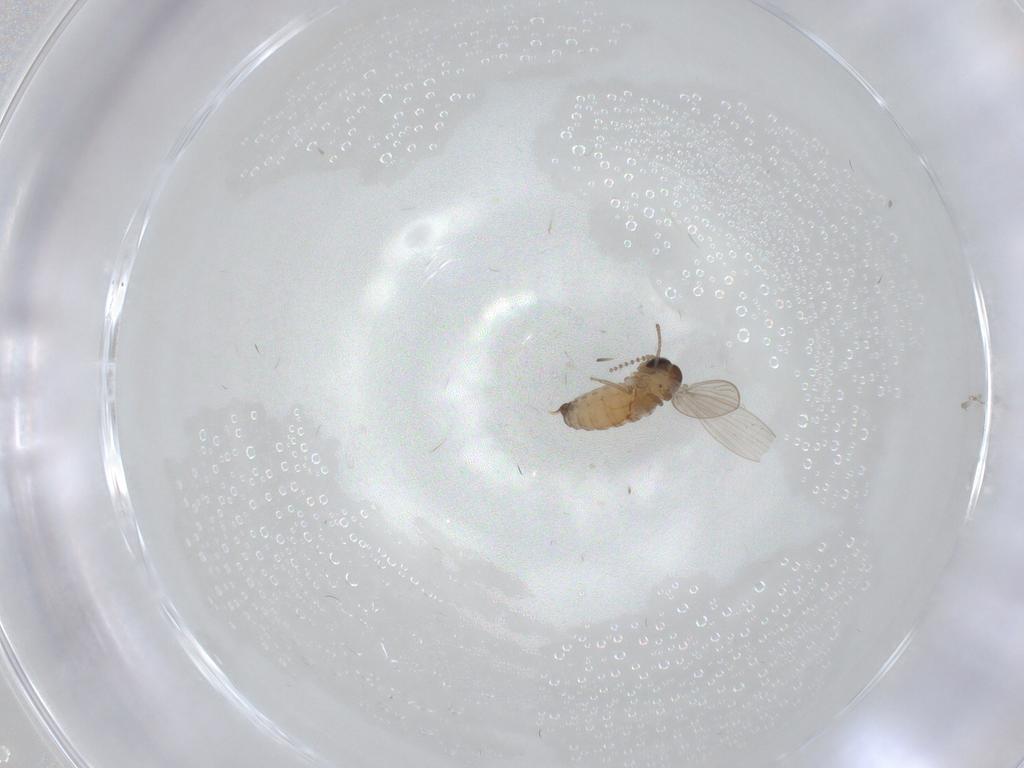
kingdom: Animalia
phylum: Arthropoda
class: Insecta
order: Diptera
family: Psychodidae
